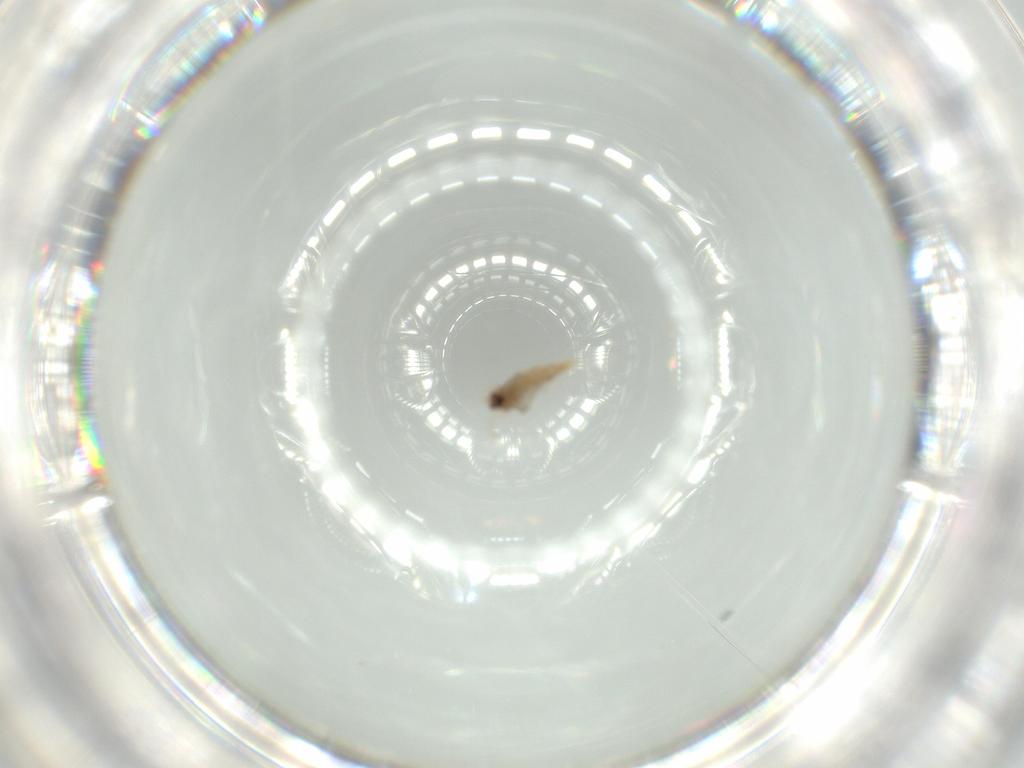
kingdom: Animalia
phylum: Arthropoda
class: Insecta
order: Diptera
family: Cecidomyiidae
